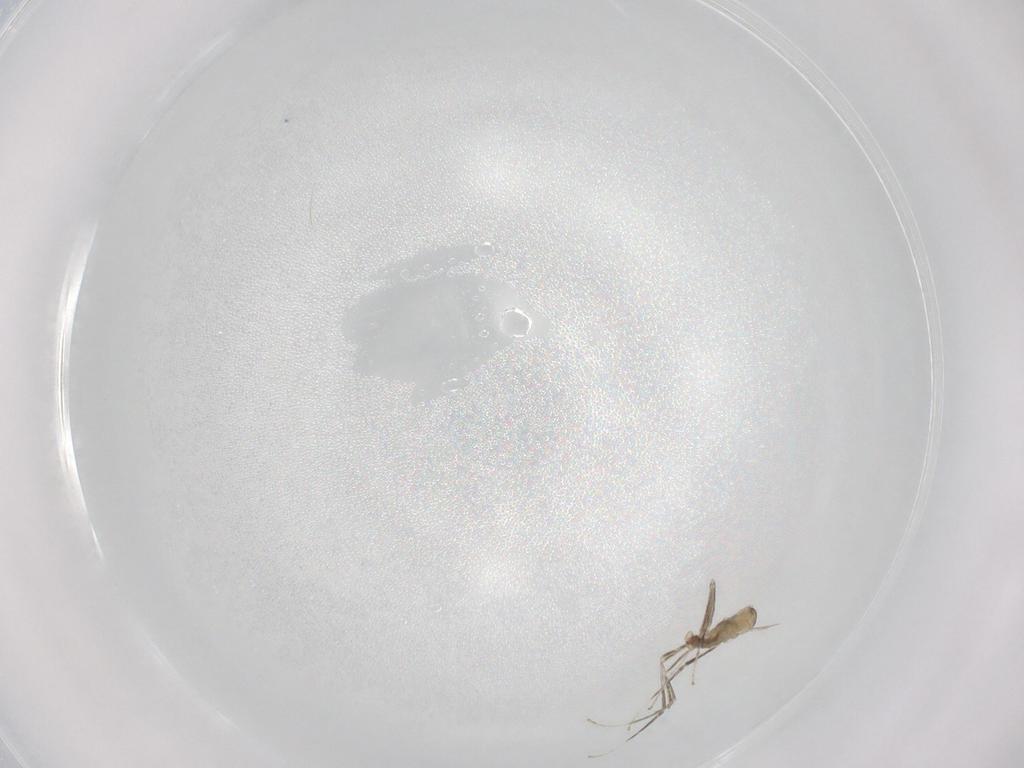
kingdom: Animalia
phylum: Arthropoda
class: Insecta
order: Diptera
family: Cecidomyiidae
